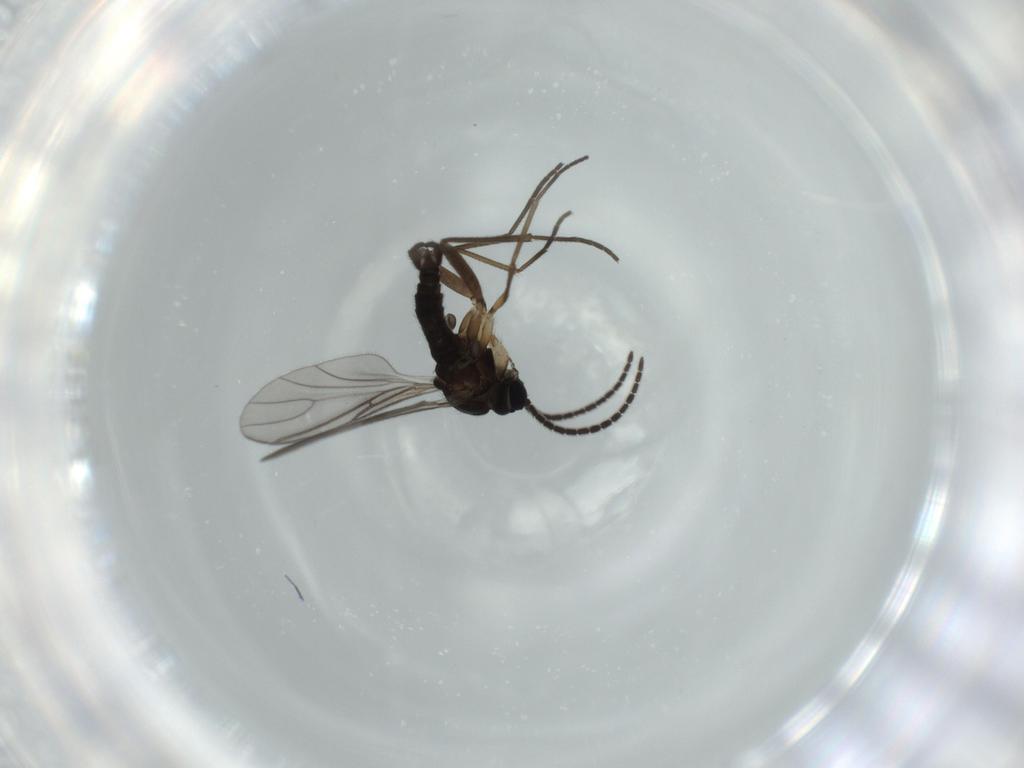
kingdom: Animalia
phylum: Arthropoda
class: Insecta
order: Diptera
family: Sciaridae
